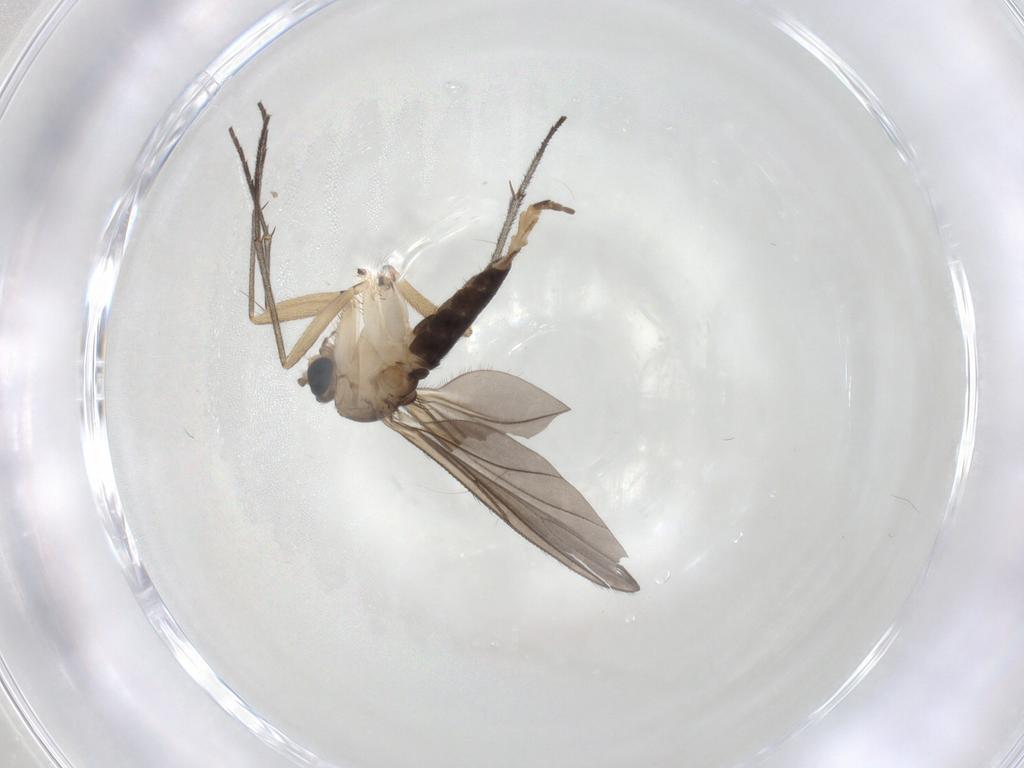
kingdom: Animalia
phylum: Arthropoda
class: Insecta
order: Diptera
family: Sciaridae
